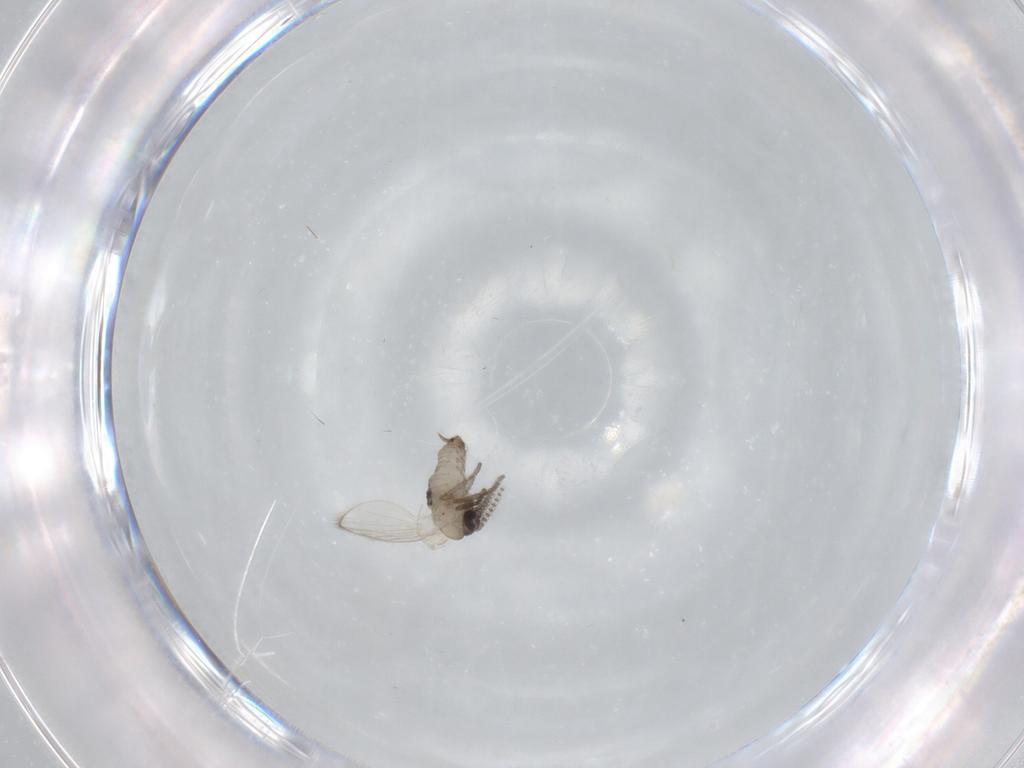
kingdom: Animalia
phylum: Arthropoda
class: Insecta
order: Diptera
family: Psychodidae
